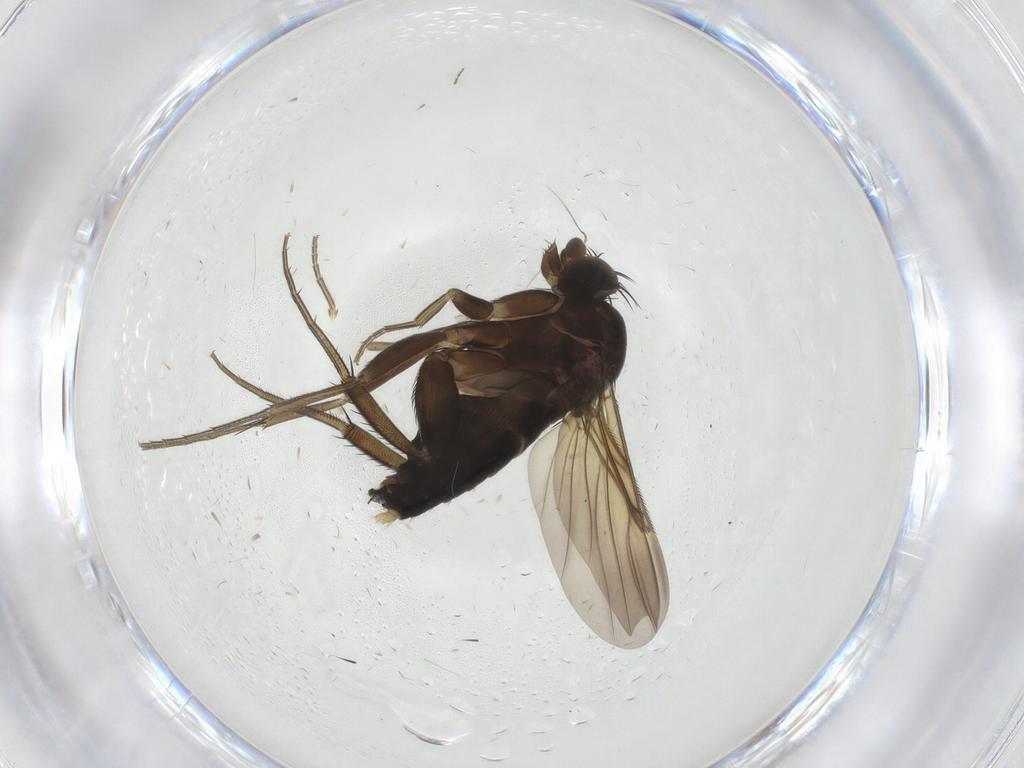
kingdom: Animalia
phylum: Arthropoda
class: Insecta
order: Diptera
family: Phoridae
